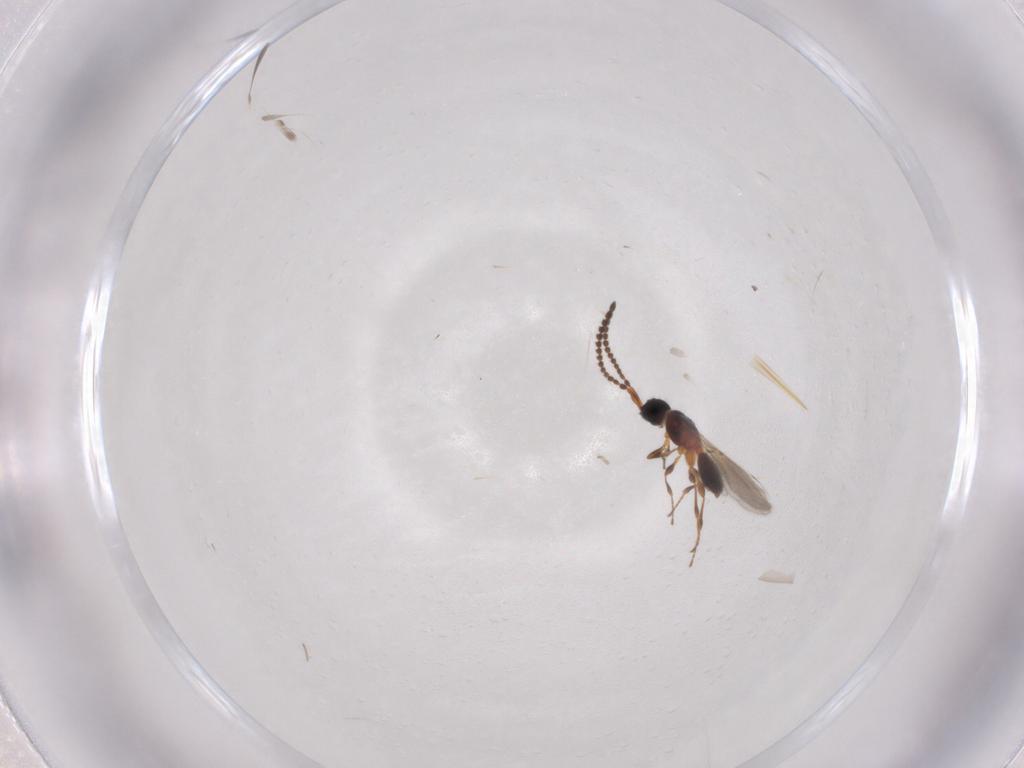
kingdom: Animalia
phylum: Arthropoda
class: Insecta
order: Hymenoptera
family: Diapriidae
